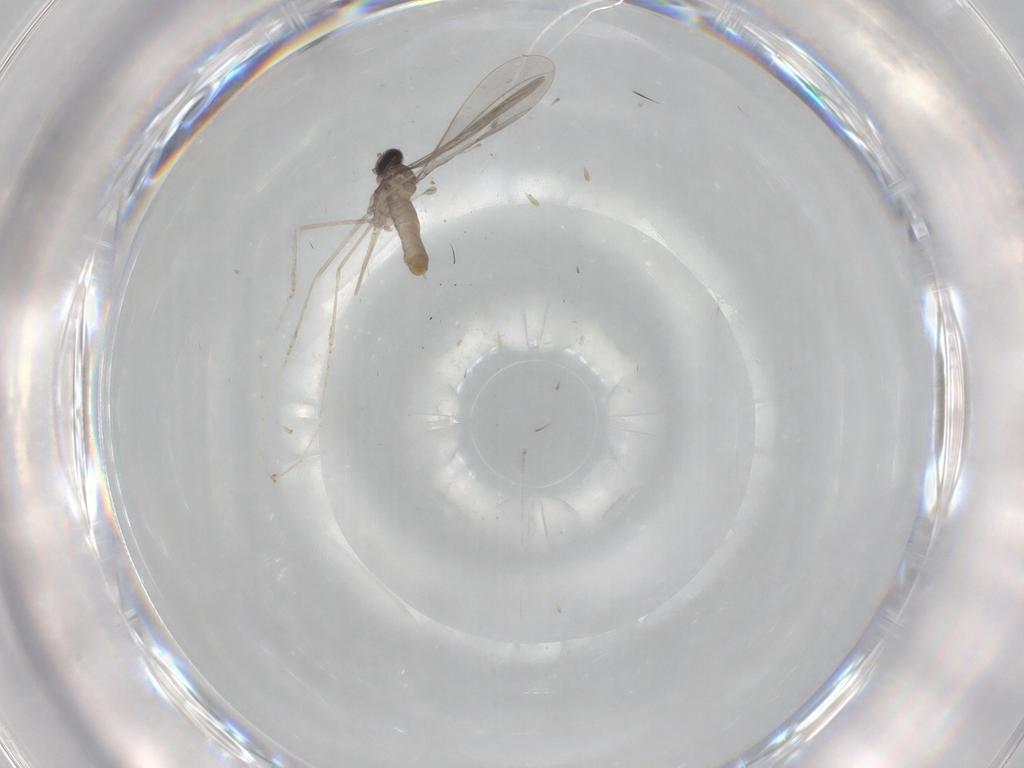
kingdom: Animalia
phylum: Arthropoda
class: Insecta
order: Diptera
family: Cecidomyiidae
